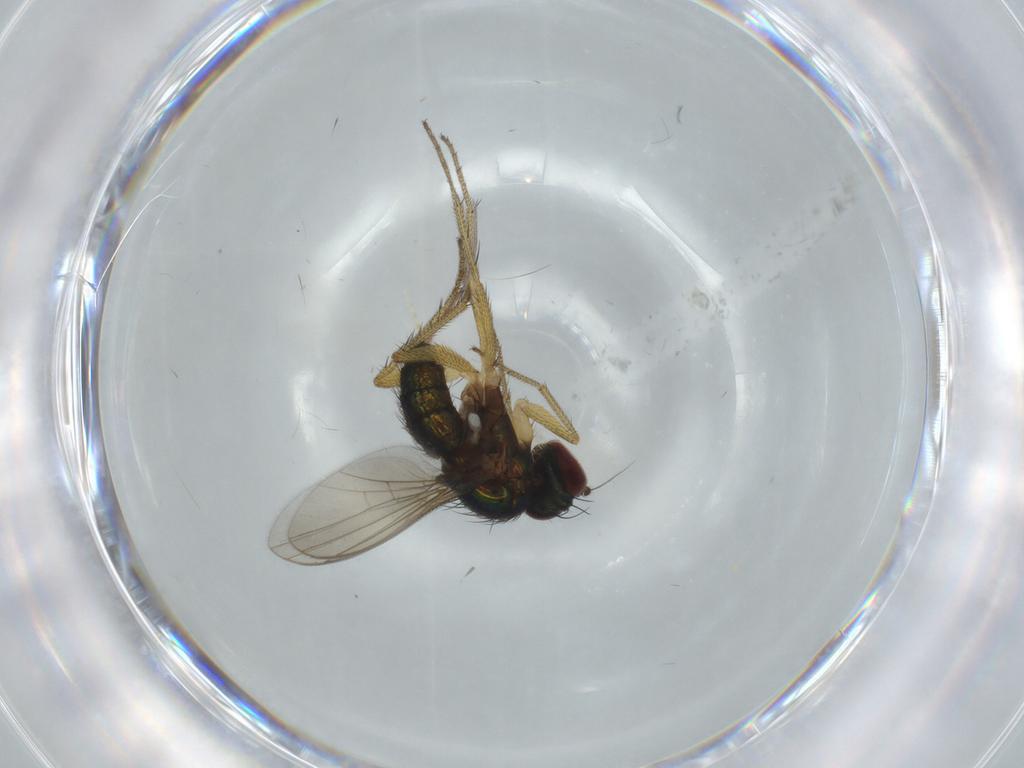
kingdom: Animalia
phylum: Arthropoda
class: Insecta
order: Diptera
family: Dolichopodidae
